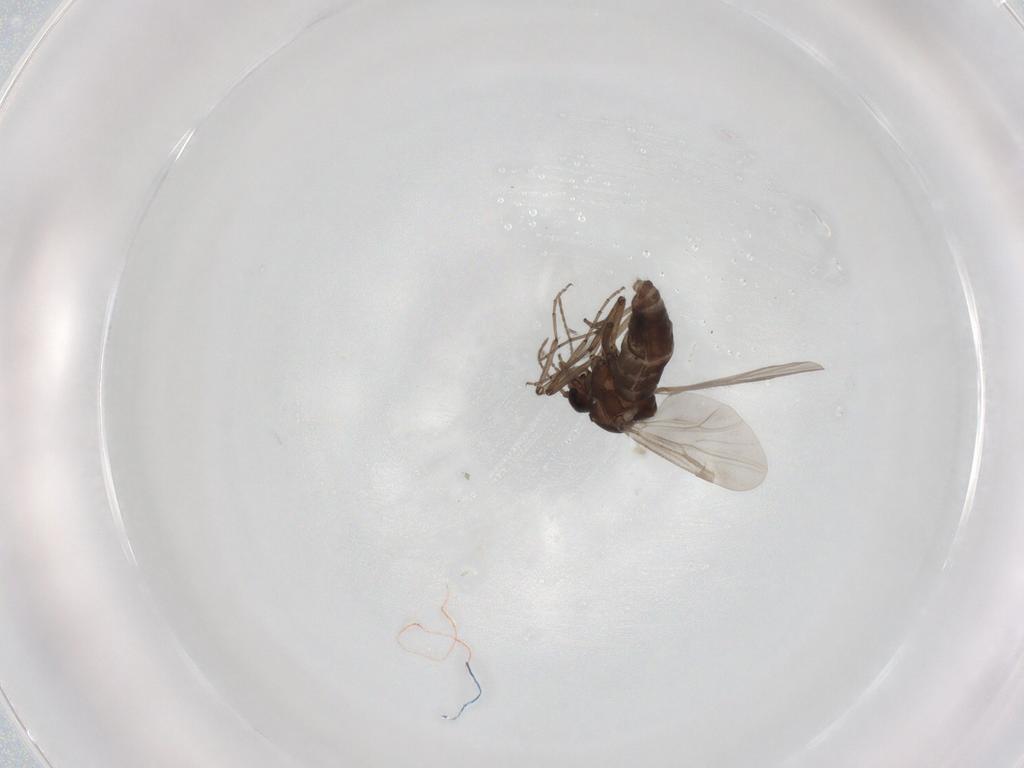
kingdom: Animalia
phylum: Arthropoda
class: Insecta
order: Diptera
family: Ceratopogonidae
